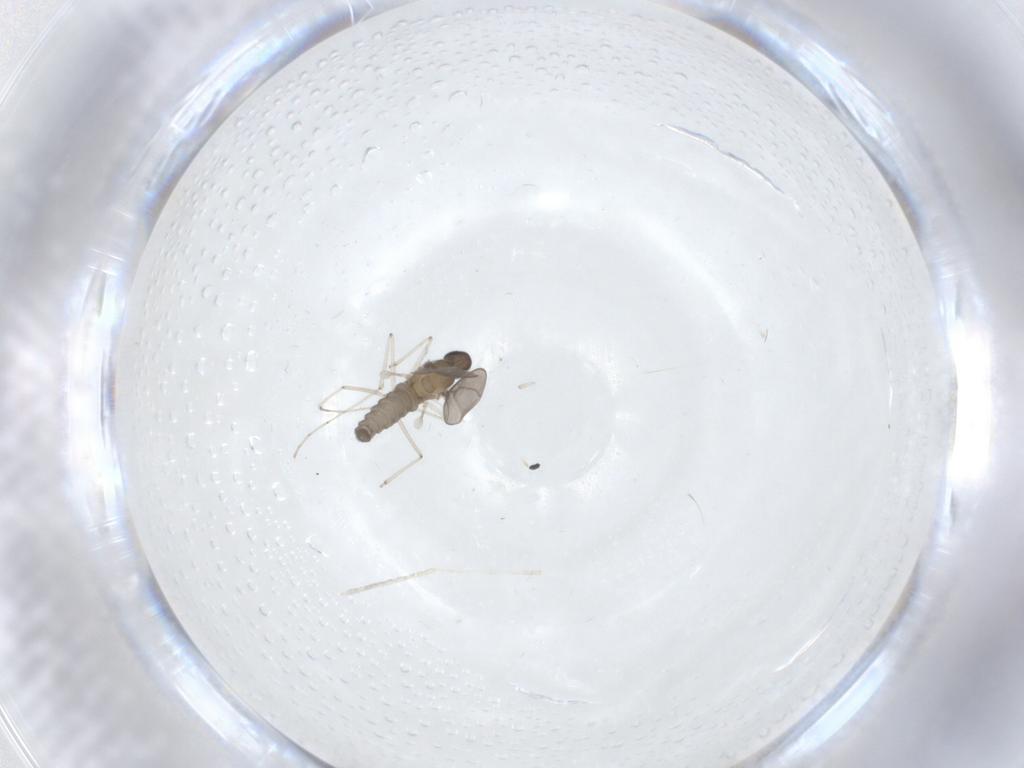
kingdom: Animalia
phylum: Arthropoda
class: Insecta
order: Diptera
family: Cecidomyiidae
